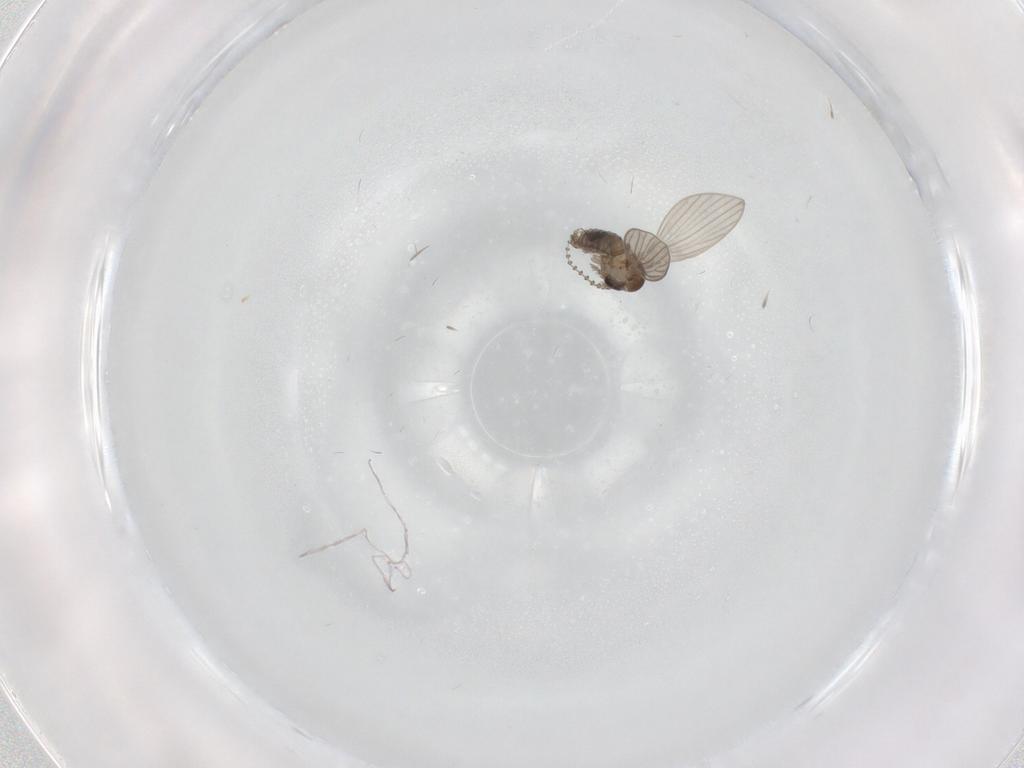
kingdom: Animalia
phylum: Arthropoda
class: Insecta
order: Diptera
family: Psychodidae
